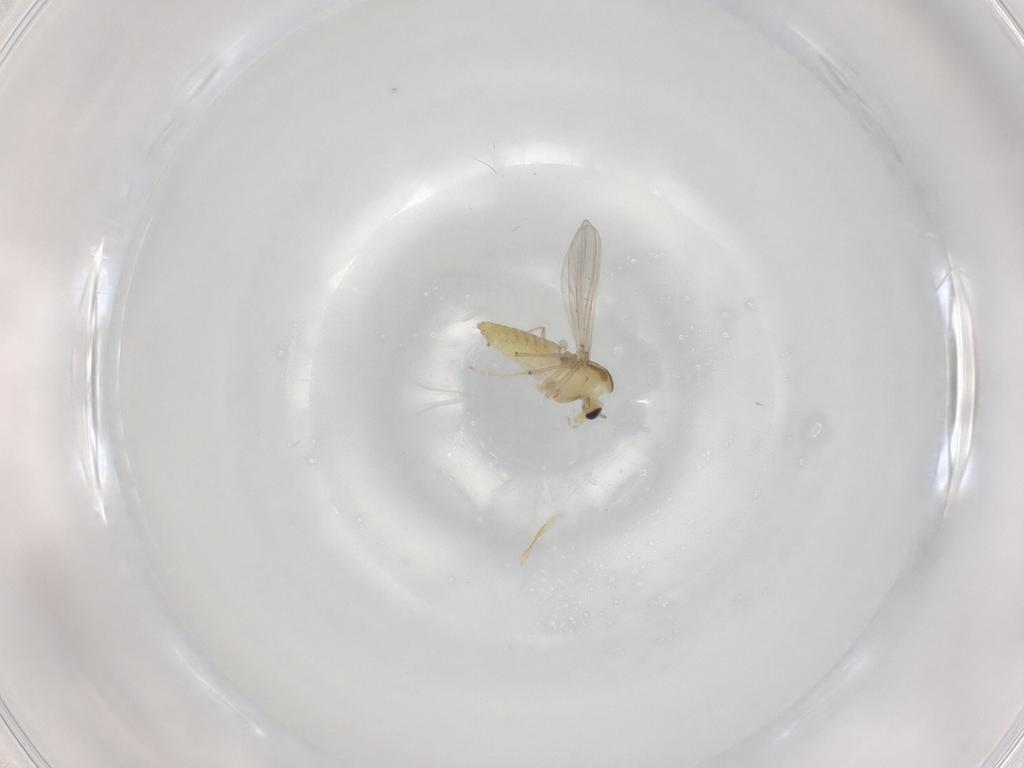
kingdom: Animalia
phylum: Arthropoda
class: Insecta
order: Diptera
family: Chironomidae
